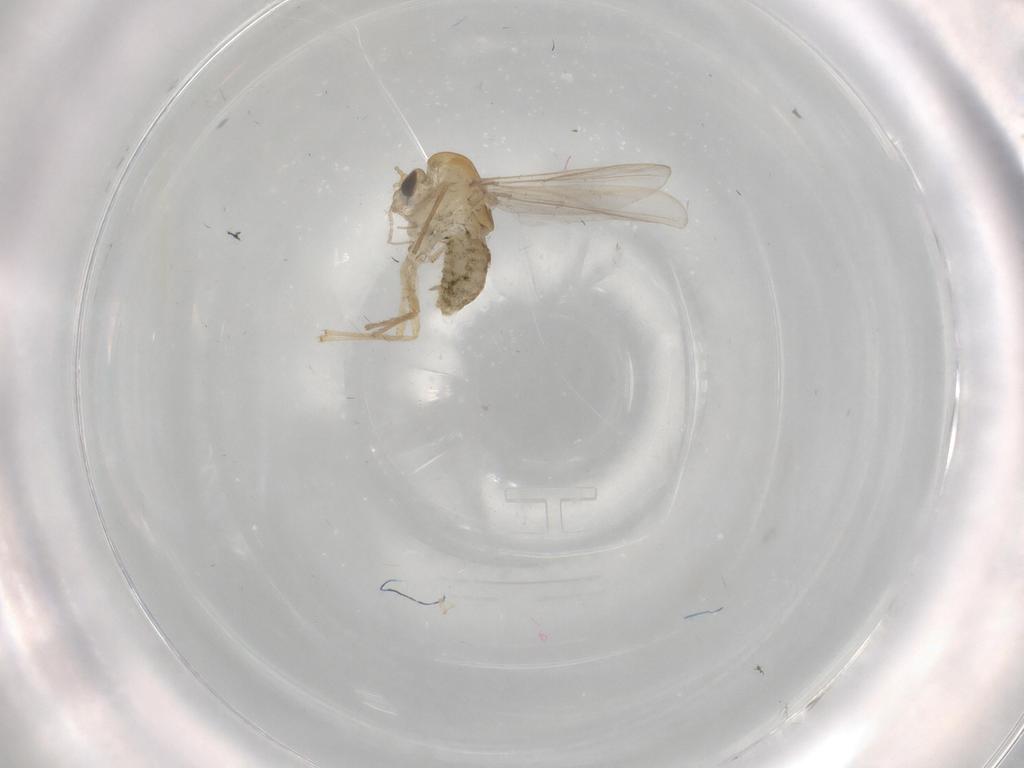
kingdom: Animalia
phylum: Arthropoda
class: Insecta
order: Diptera
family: Chironomidae
